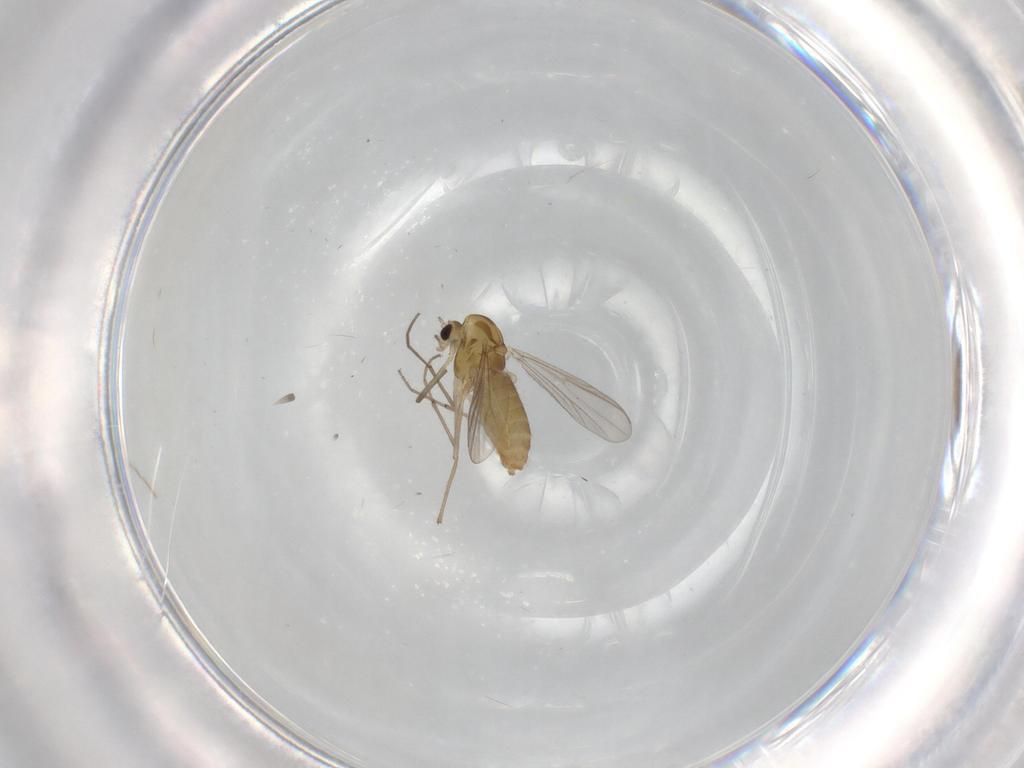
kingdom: Animalia
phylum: Arthropoda
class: Insecta
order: Diptera
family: Chironomidae
